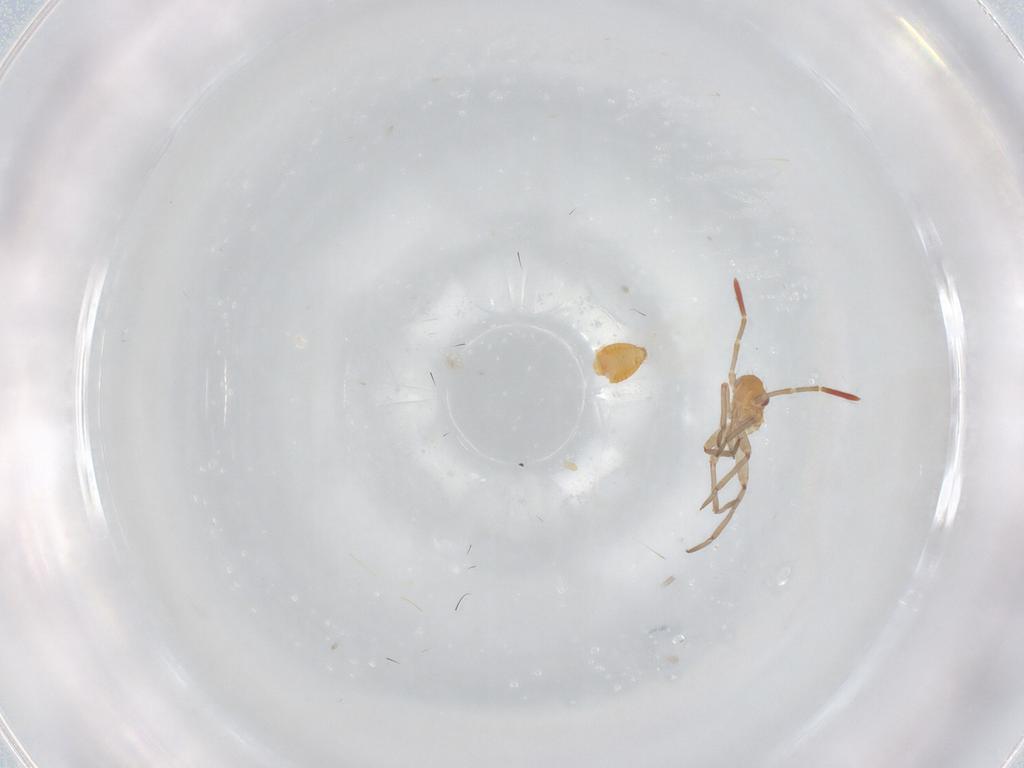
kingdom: Animalia
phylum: Arthropoda
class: Insecta
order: Hemiptera
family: Miridae
